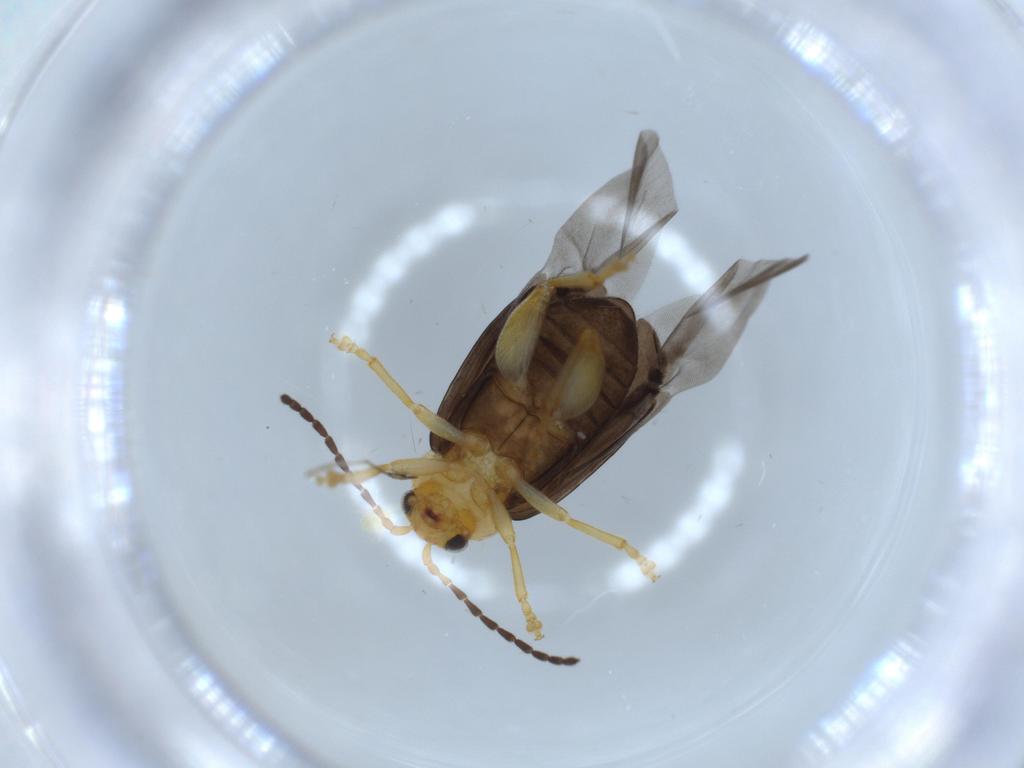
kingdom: Animalia
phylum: Arthropoda
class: Insecta
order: Coleoptera
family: Chrysomelidae
